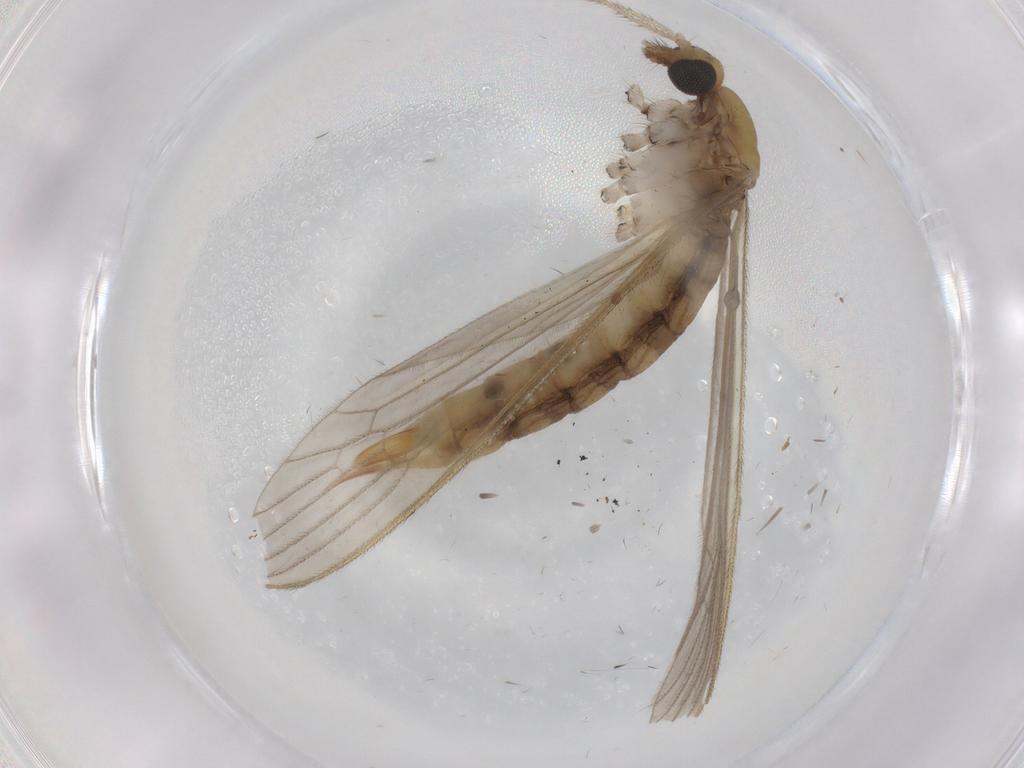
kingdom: Animalia
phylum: Arthropoda
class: Insecta
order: Diptera
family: Limoniidae
